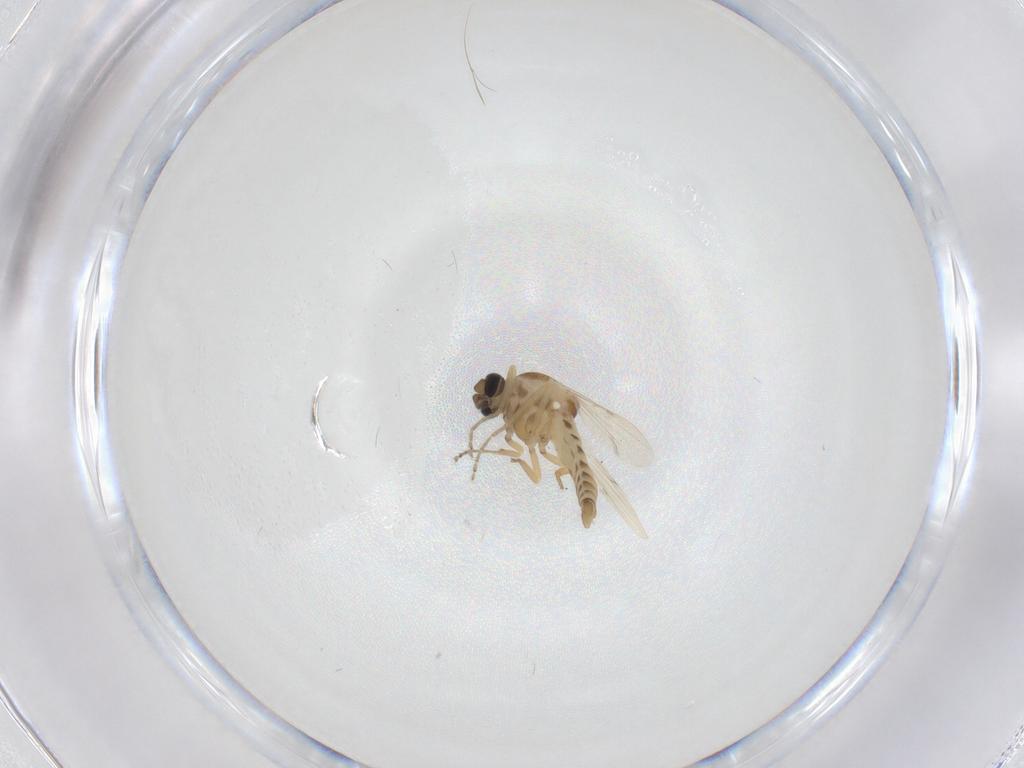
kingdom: Animalia
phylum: Arthropoda
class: Insecta
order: Diptera
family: Ceratopogonidae
